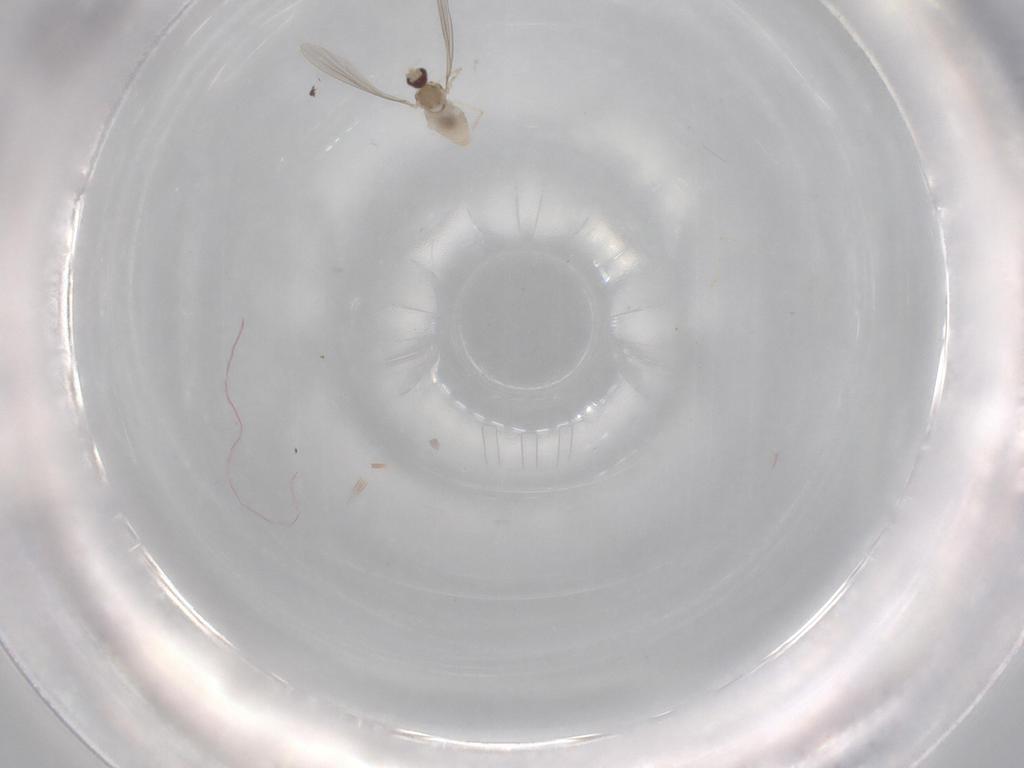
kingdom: Animalia
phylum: Arthropoda
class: Insecta
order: Diptera
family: Cecidomyiidae
